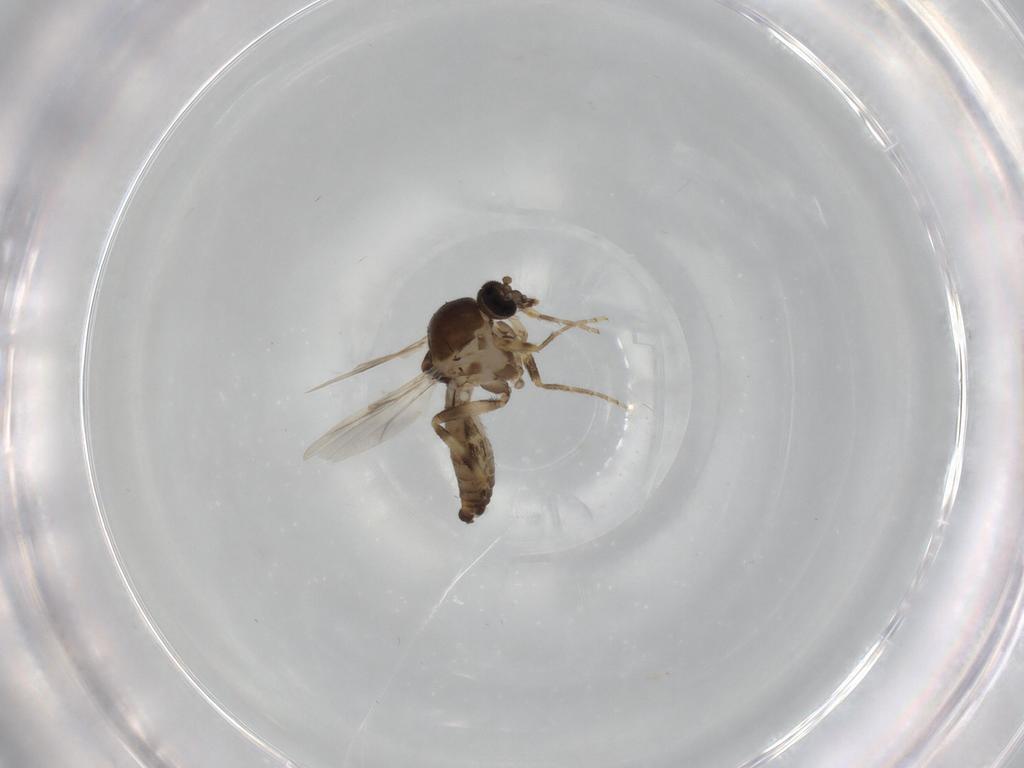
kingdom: Animalia
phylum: Arthropoda
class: Insecta
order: Diptera
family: Ceratopogonidae
